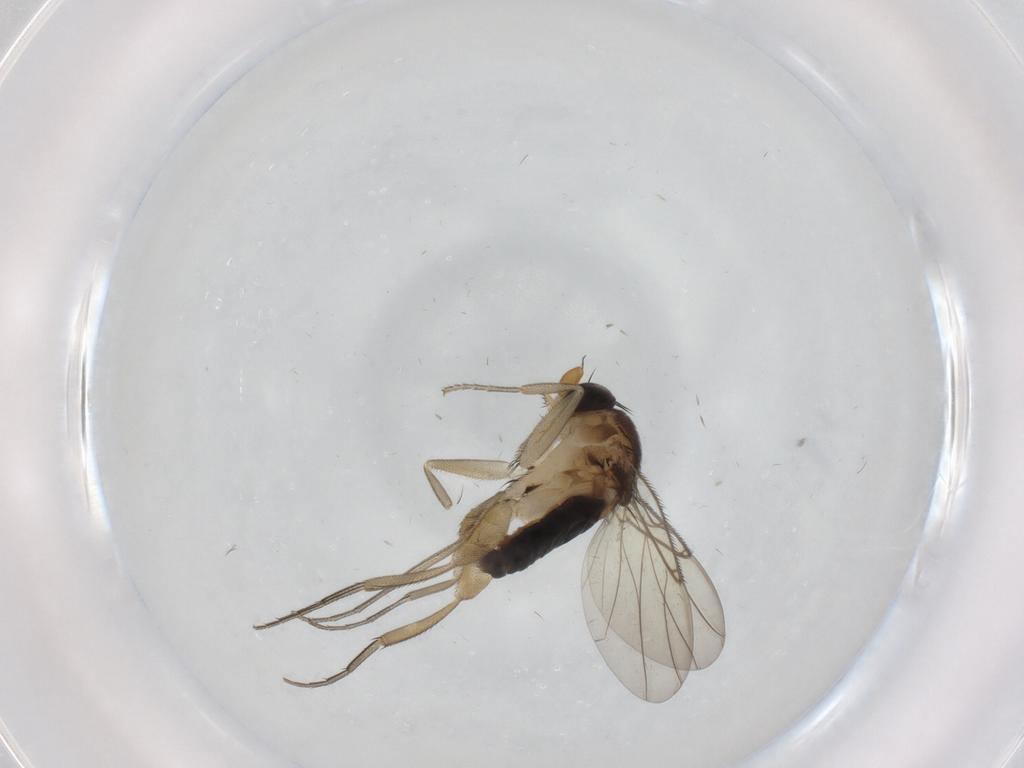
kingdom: Animalia
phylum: Arthropoda
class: Insecta
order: Diptera
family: Phoridae
